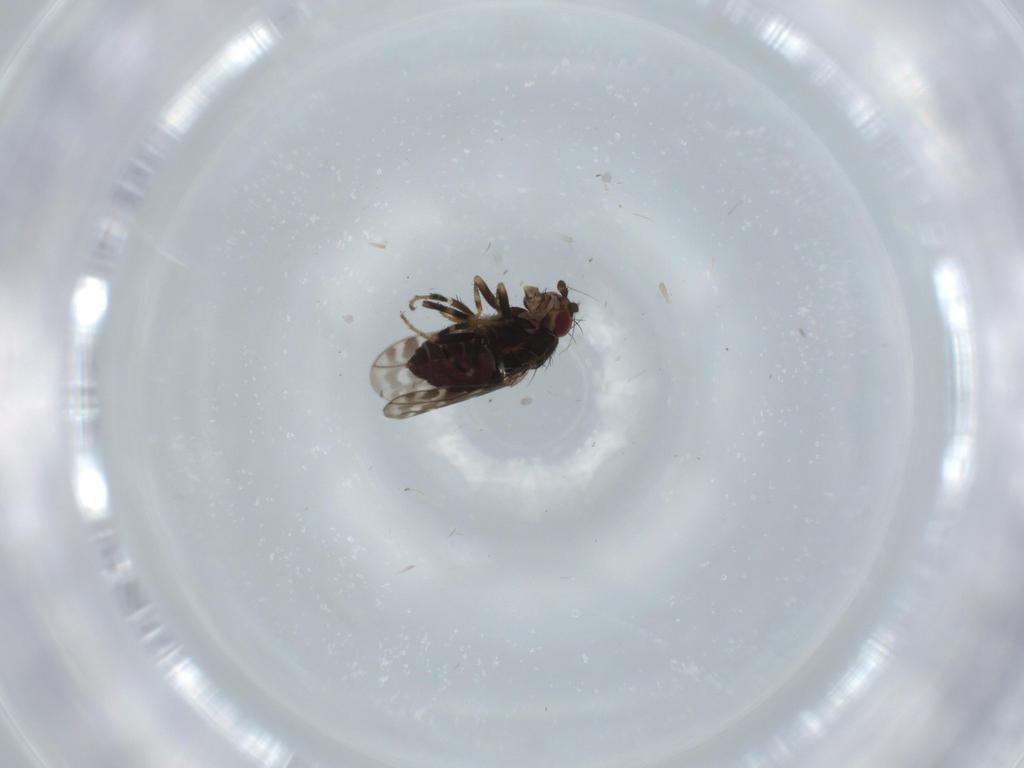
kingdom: Animalia
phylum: Arthropoda
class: Insecta
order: Diptera
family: Sphaeroceridae
